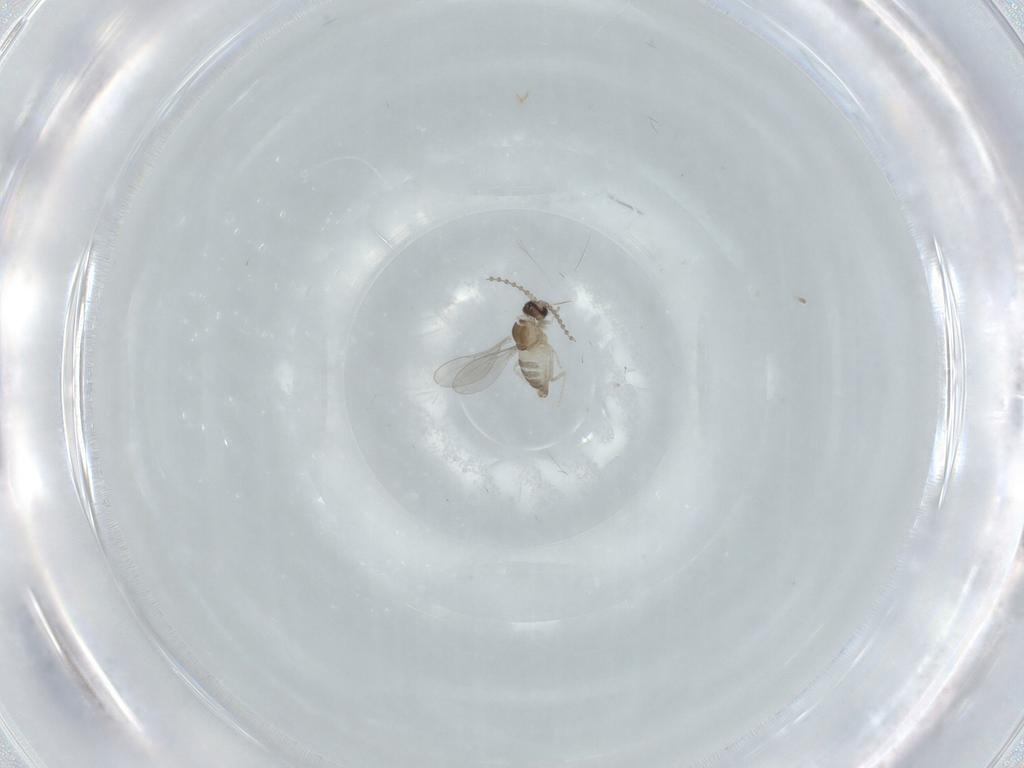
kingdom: Animalia
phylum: Arthropoda
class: Insecta
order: Diptera
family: Cecidomyiidae
